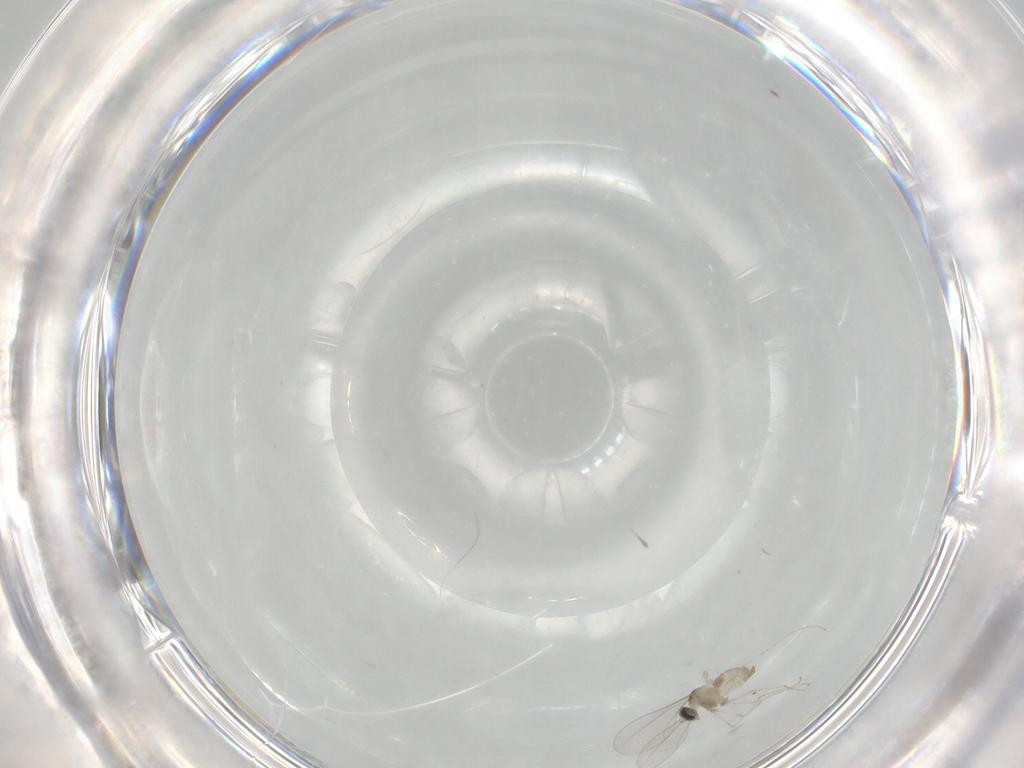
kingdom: Animalia
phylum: Arthropoda
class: Insecta
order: Diptera
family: Cecidomyiidae
